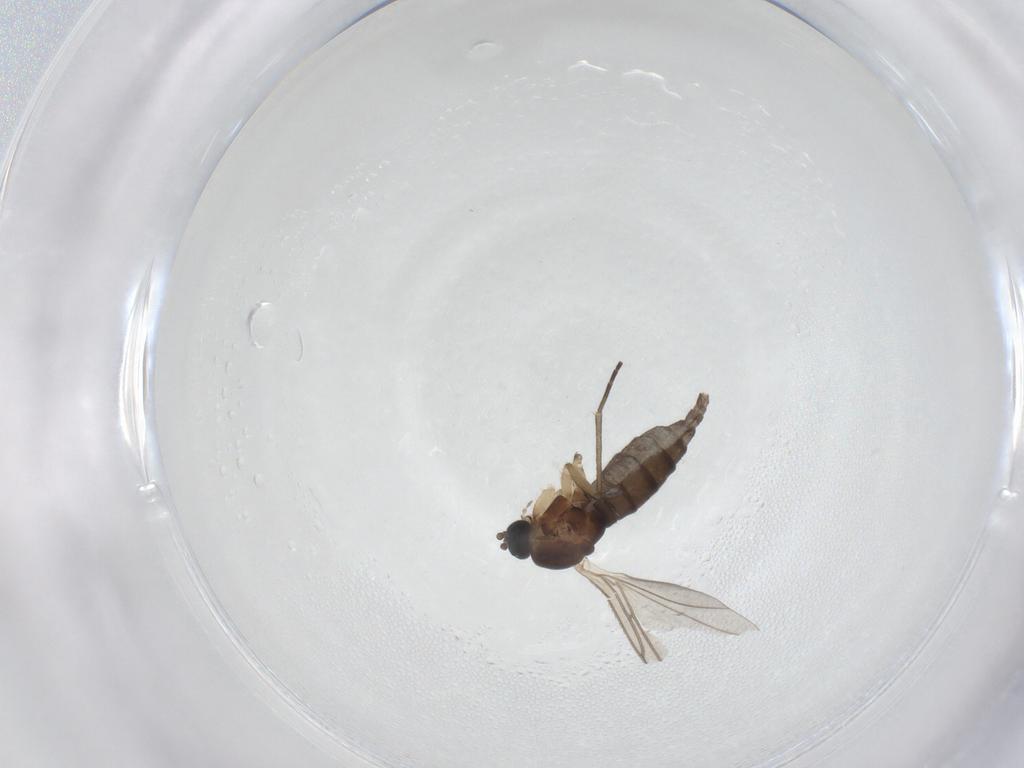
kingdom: Animalia
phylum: Arthropoda
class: Insecta
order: Diptera
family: Sciaridae
